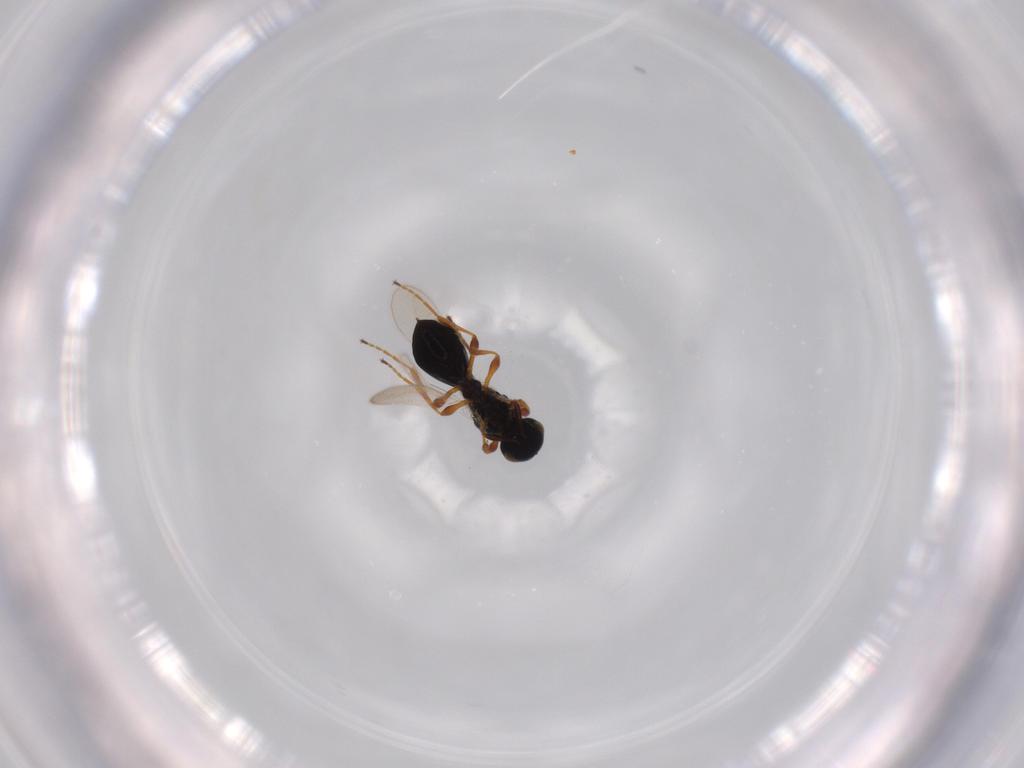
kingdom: Animalia
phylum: Arthropoda
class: Insecta
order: Hymenoptera
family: Platygastridae
